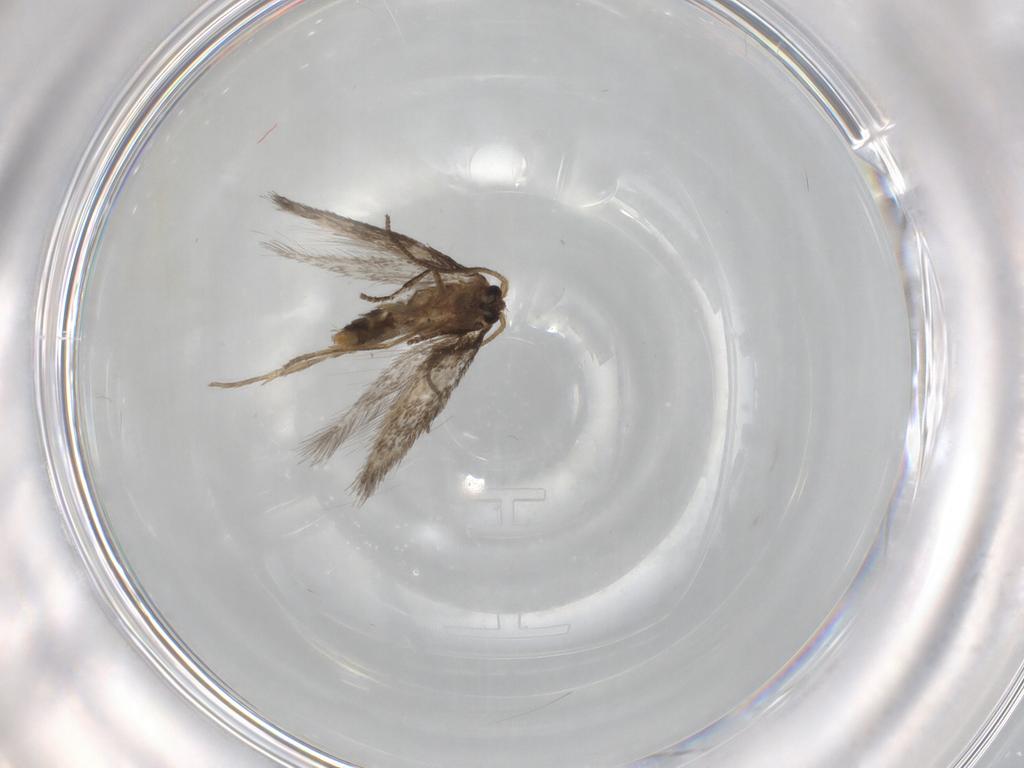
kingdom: Animalia
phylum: Arthropoda
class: Insecta
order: Lepidoptera
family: Nepticulidae
